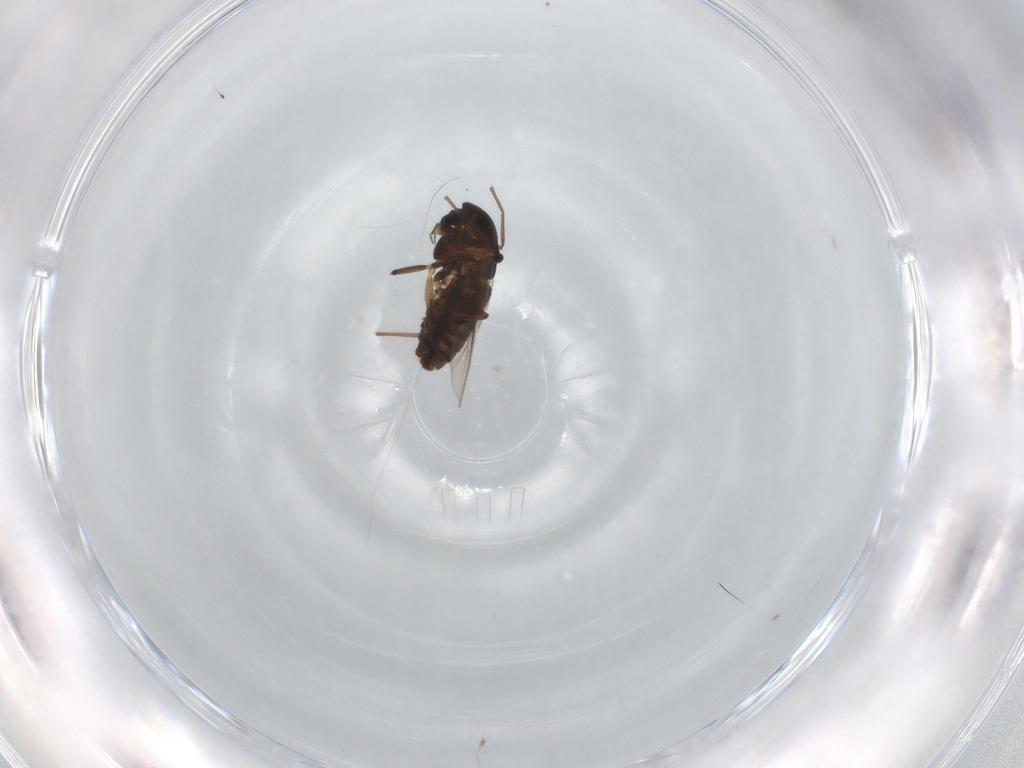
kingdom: Animalia
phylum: Arthropoda
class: Insecta
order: Diptera
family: Chironomidae
